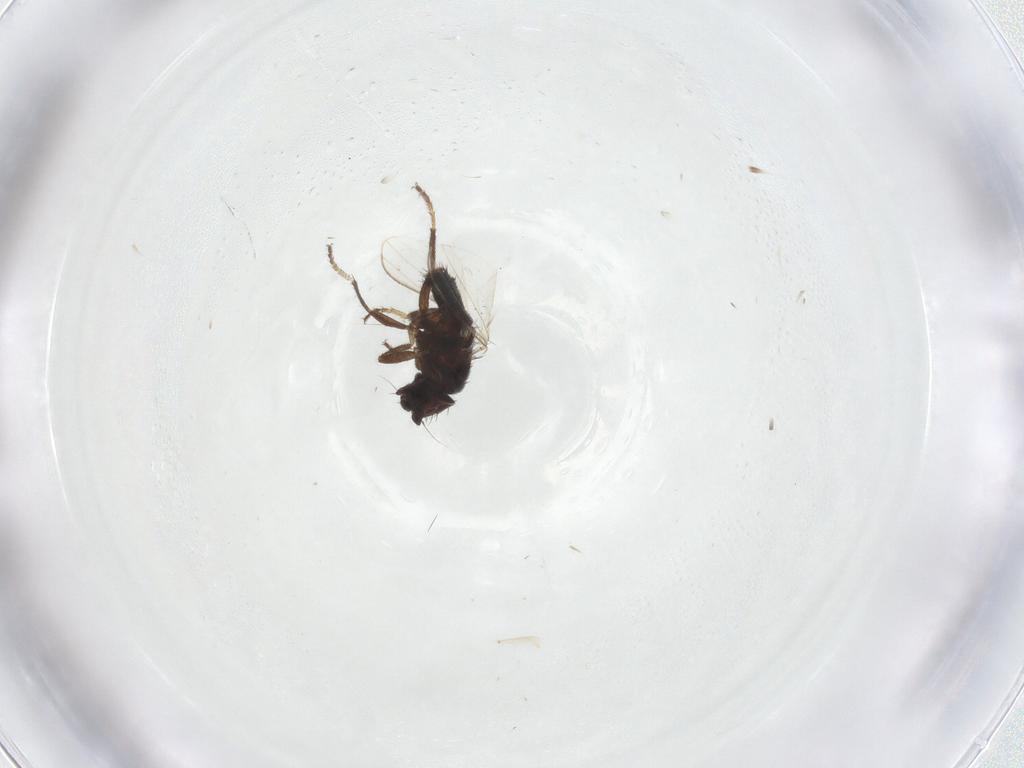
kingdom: Animalia
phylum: Arthropoda
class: Insecta
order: Diptera
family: Milichiidae
